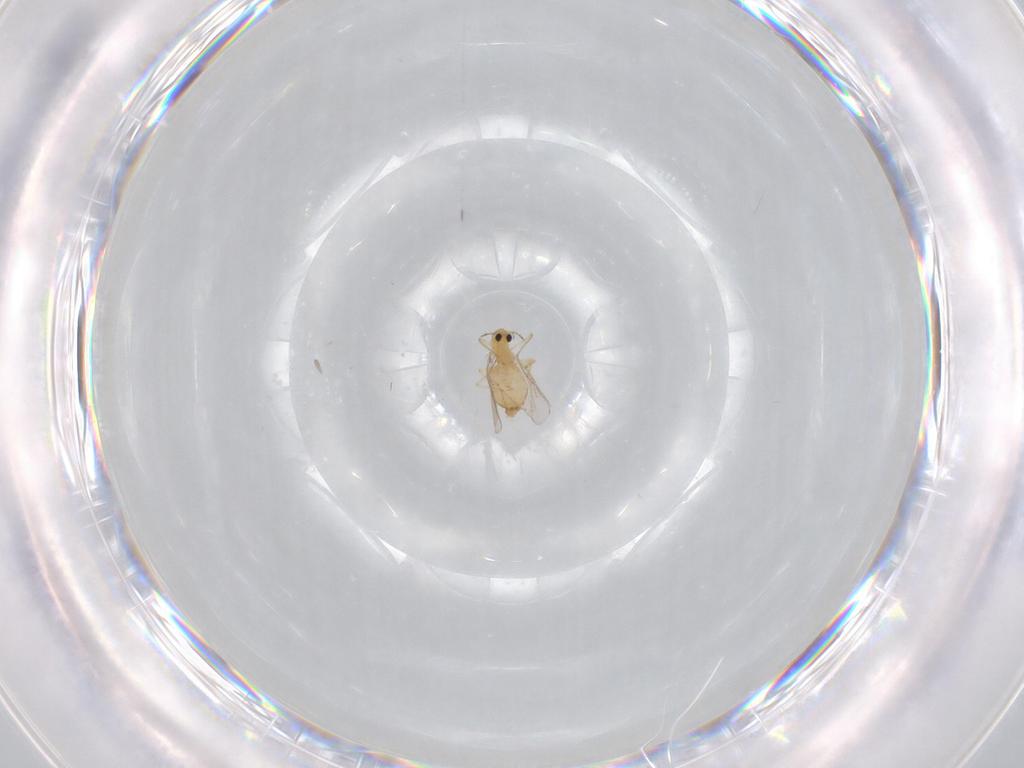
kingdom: Animalia
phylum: Arthropoda
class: Insecta
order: Diptera
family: Chironomidae
